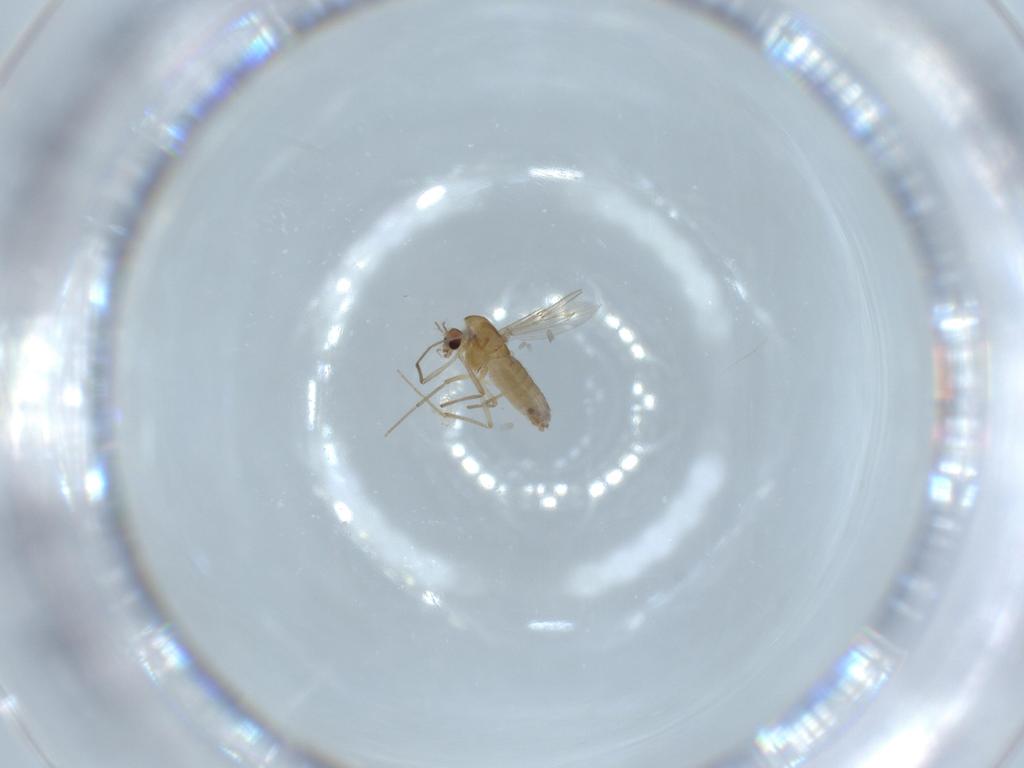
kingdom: Animalia
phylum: Arthropoda
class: Insecta
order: Diptera
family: Chironomidae
